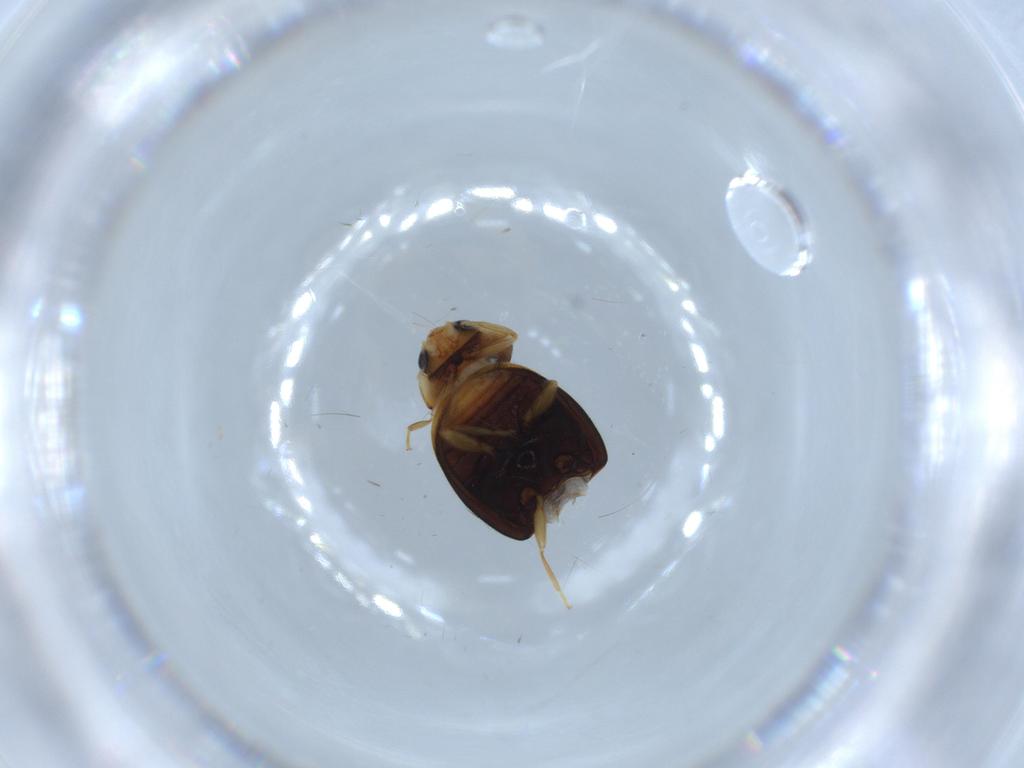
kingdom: Animalia
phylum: Arthropoda
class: Insecta
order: Coleoptera
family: Curculionidae
